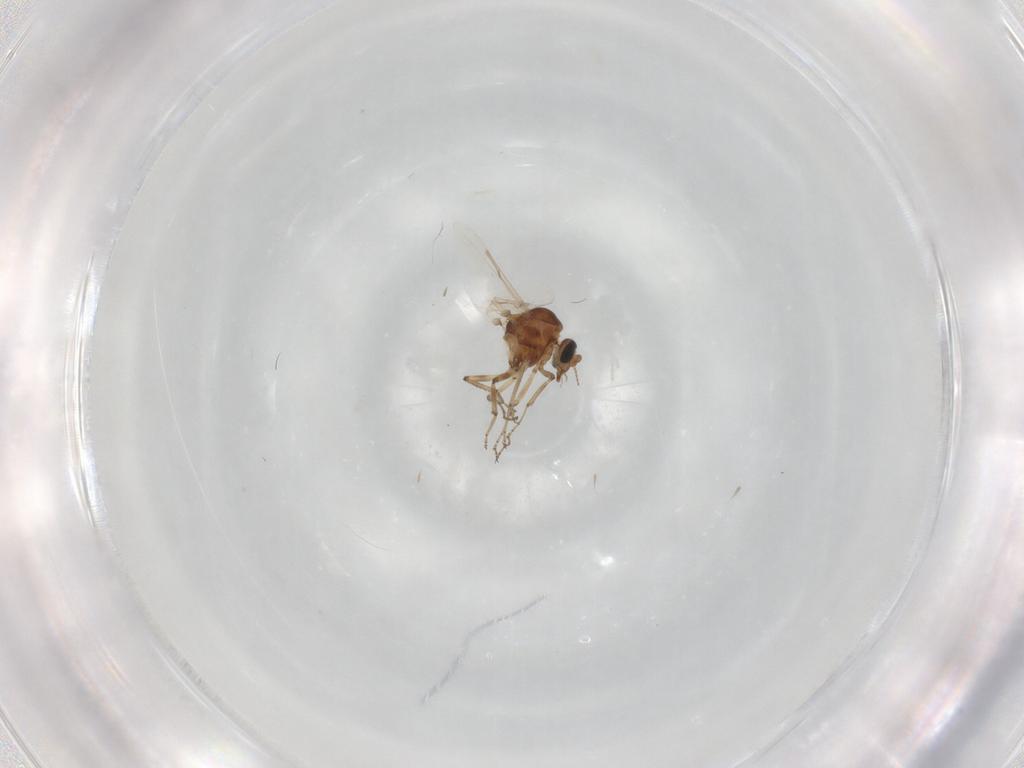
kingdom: Animalia
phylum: Arthropoda
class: Insecta
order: Diptera
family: Ceratopogonidae
